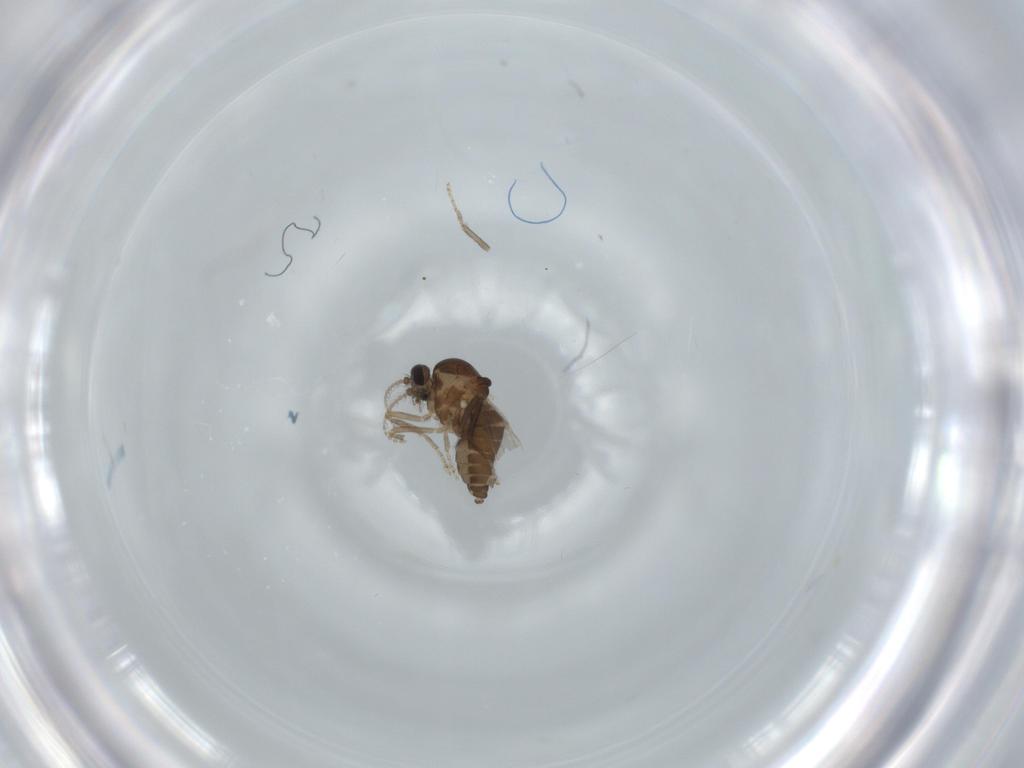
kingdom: Animalia
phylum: Arthropoda
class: Insecta
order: Diptera
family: Ceratopogonidae
